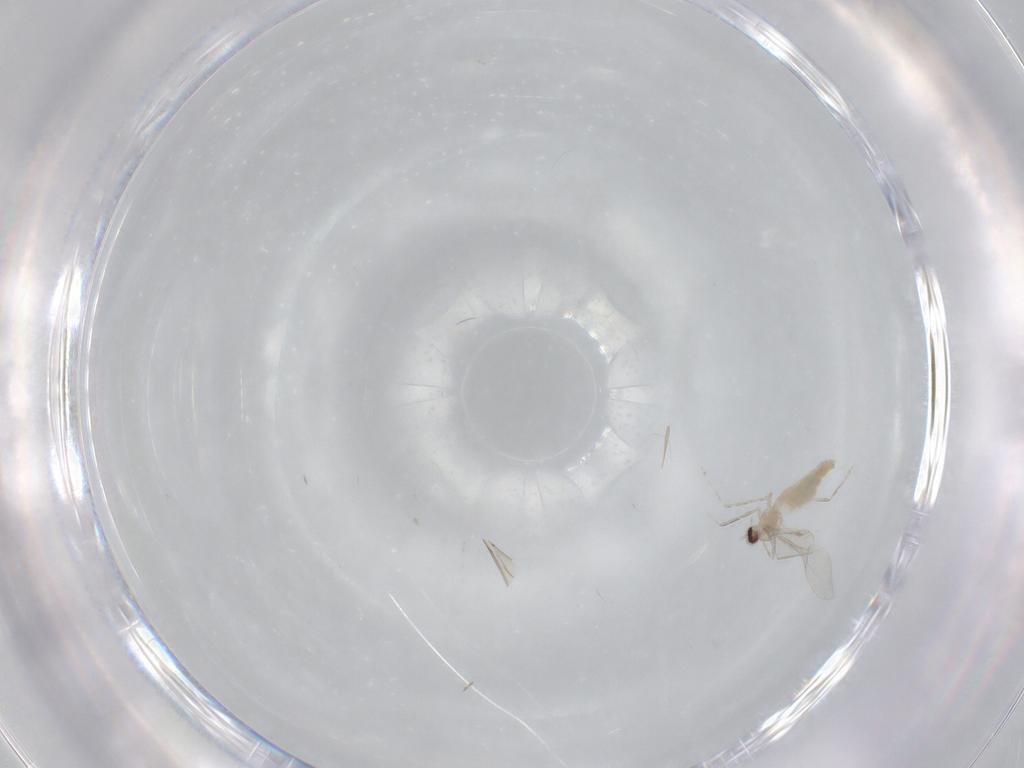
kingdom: Animalia
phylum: Arthropoda
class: Insecta
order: Diptera
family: Cecidomyiidae
